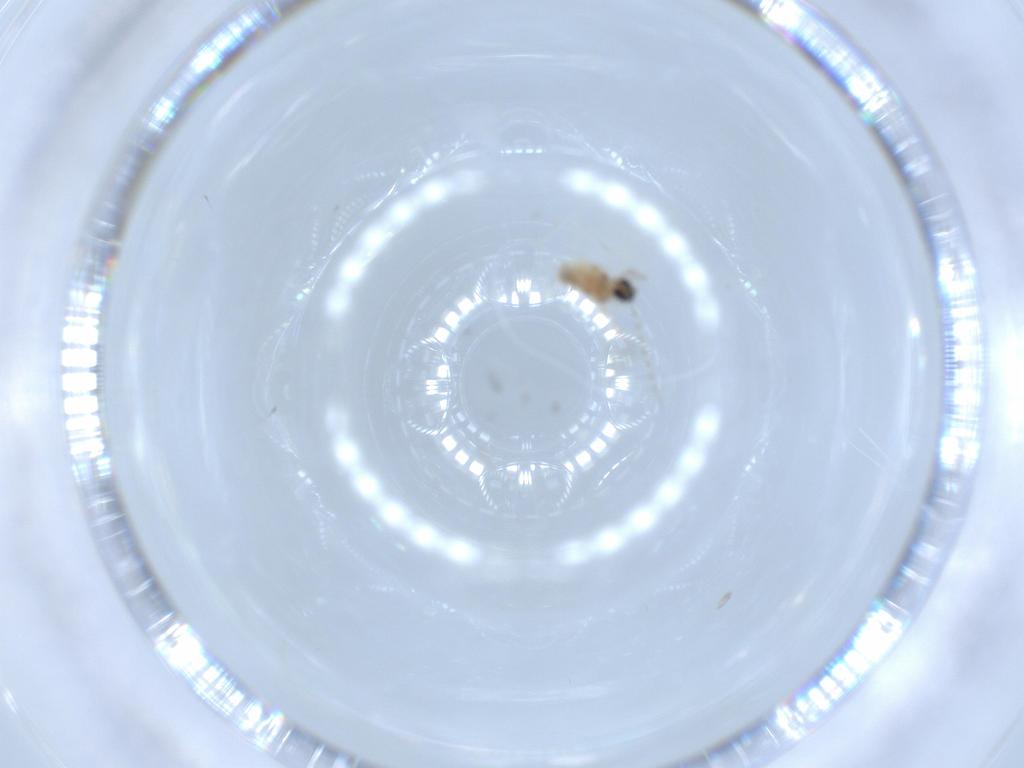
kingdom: Animalia
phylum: Arthropoda
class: Insecta
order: Diptera
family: Cecidomyiidae
